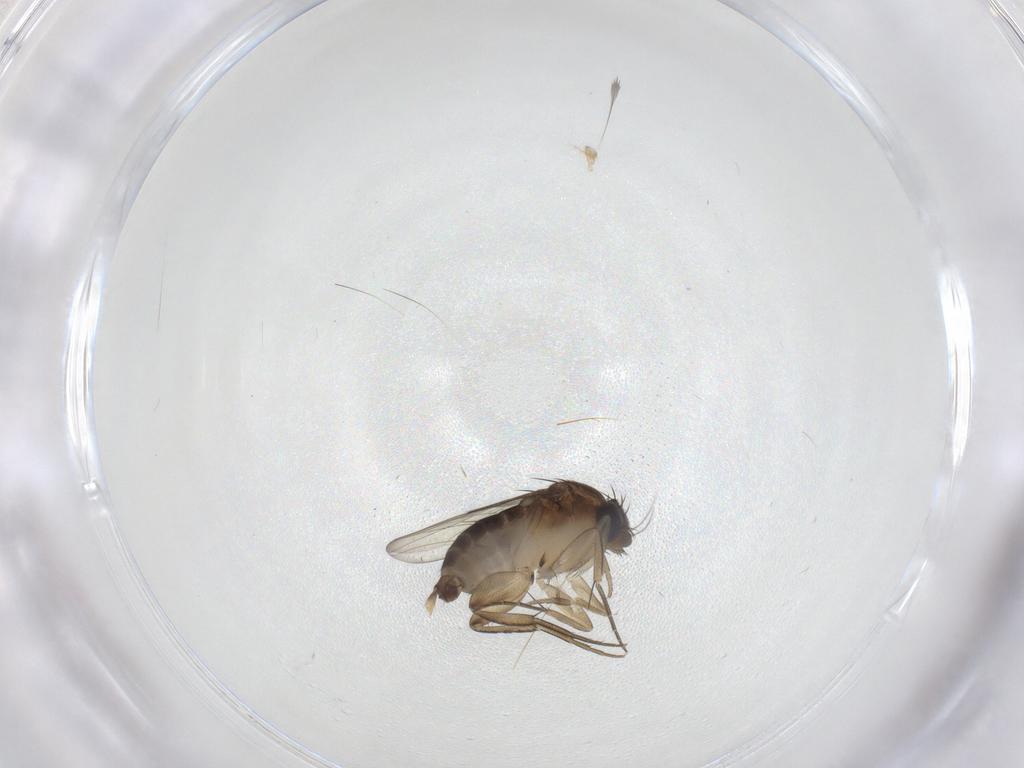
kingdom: Animalia
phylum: Arthropoda
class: Insecta
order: Diptera
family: Phoridae
